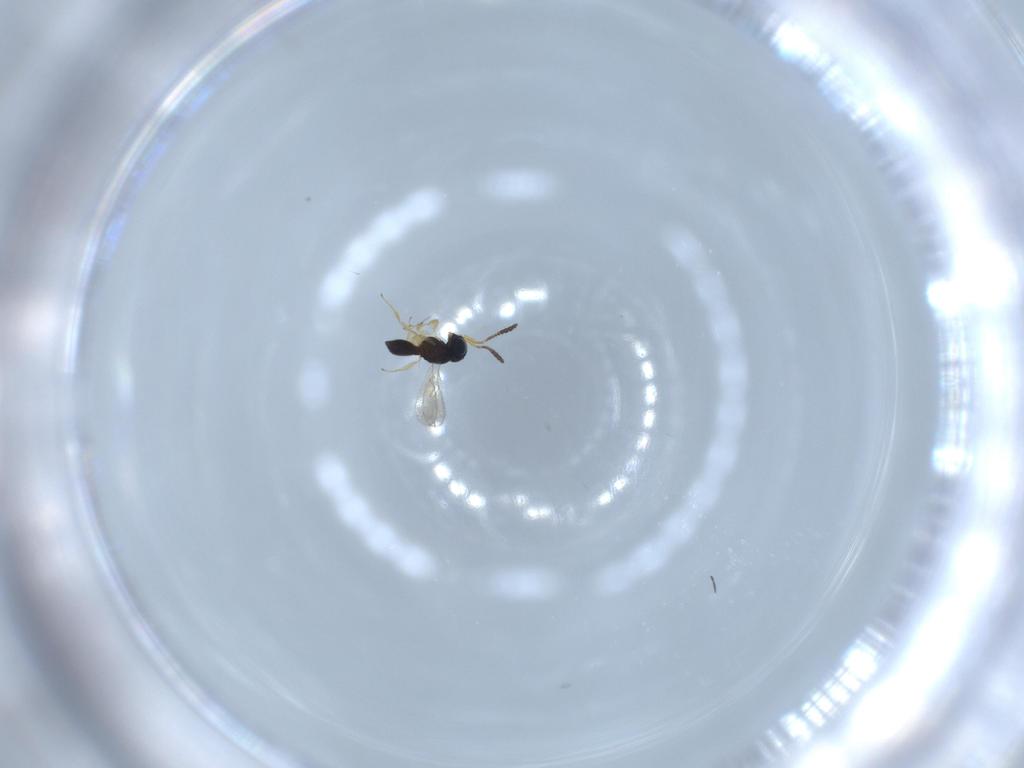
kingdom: Animalia
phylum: Arthropoda
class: Insecta
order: Hymenoptera
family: Scelionidae
